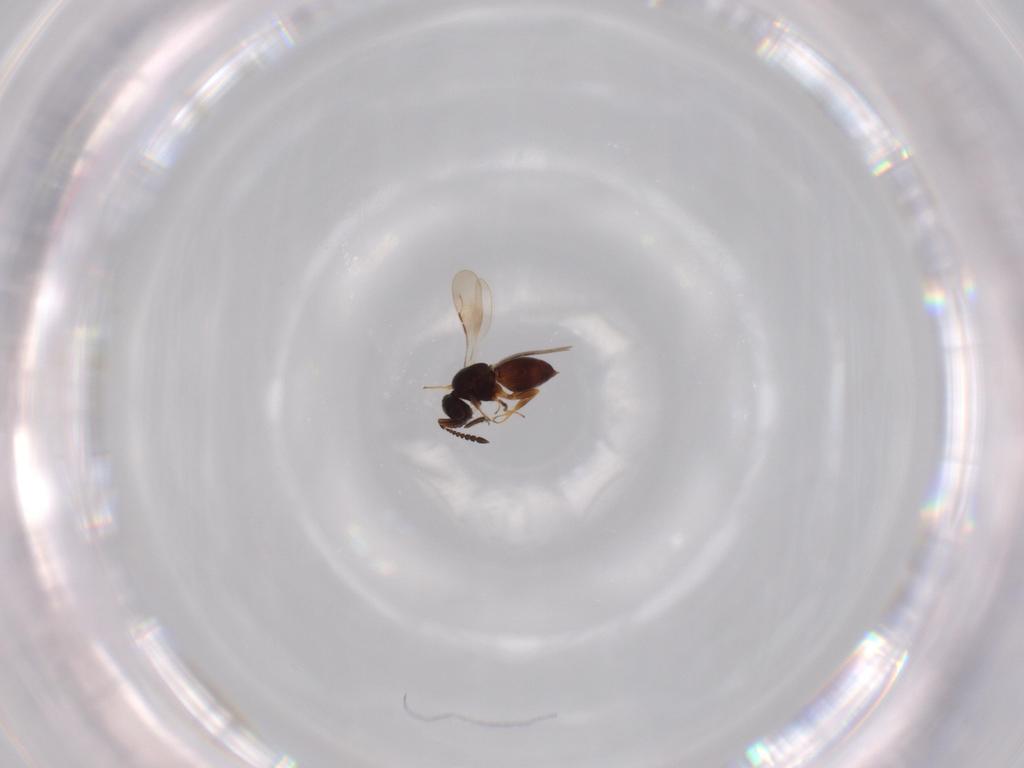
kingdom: Animalia
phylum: Arthropoda
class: Insecta
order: Hymenoptera
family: Ceraphronidae
